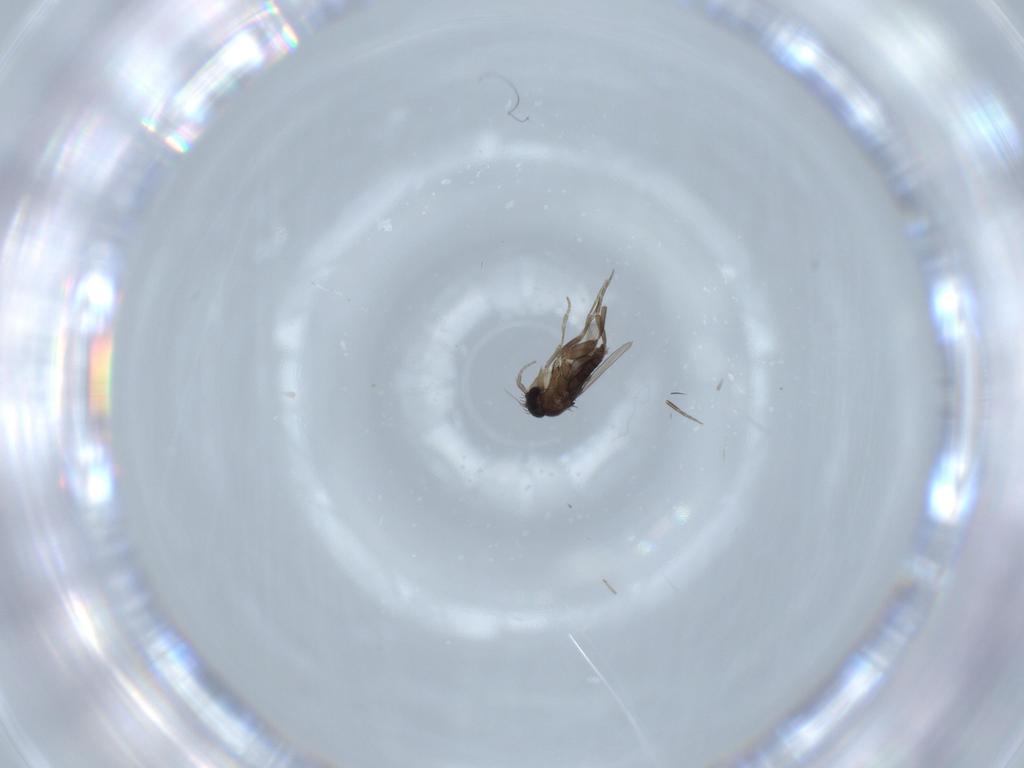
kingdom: Animalia
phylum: Arthropoda
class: Insecta
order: Diptera
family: Phoridae
